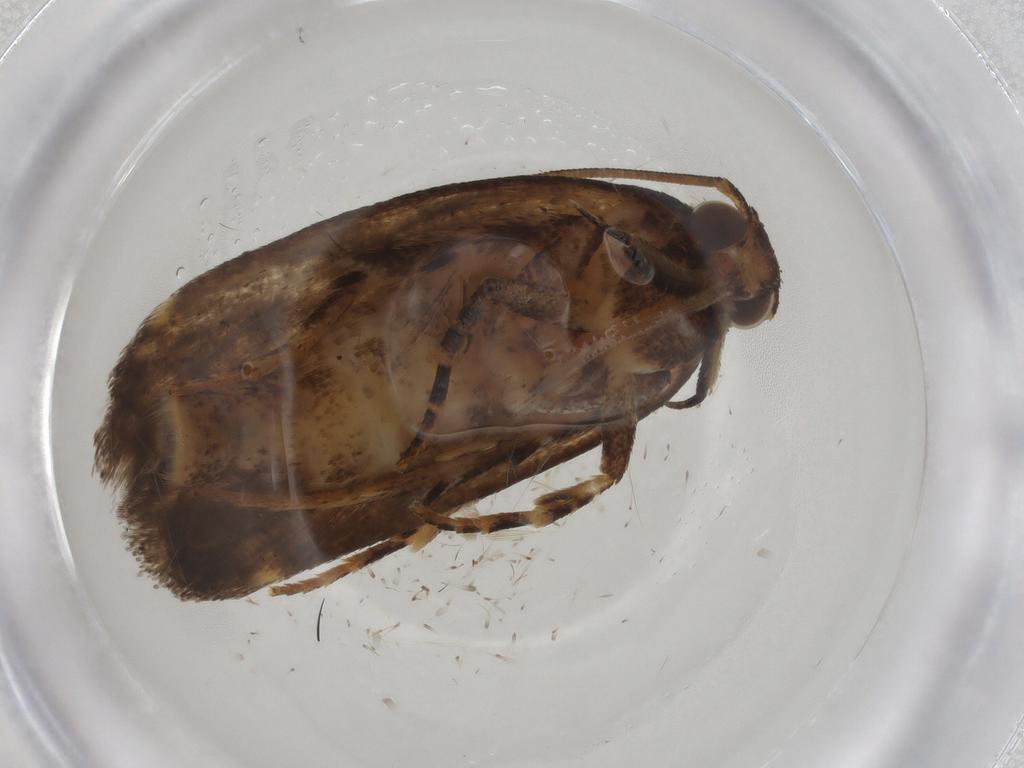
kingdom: Animalia
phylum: Arthropoda
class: Insecta
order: Lepidoptera
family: Gelechiidae
